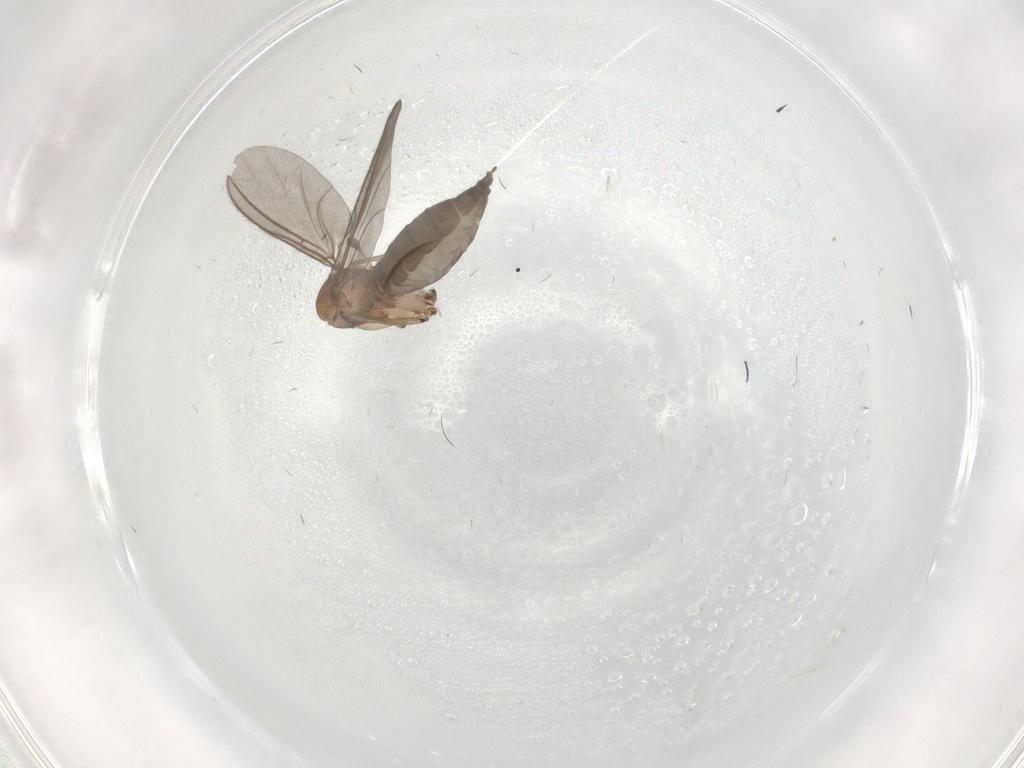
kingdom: Animalia
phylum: Arthropoda
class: Insecta
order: Diptera
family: Sciaridae
